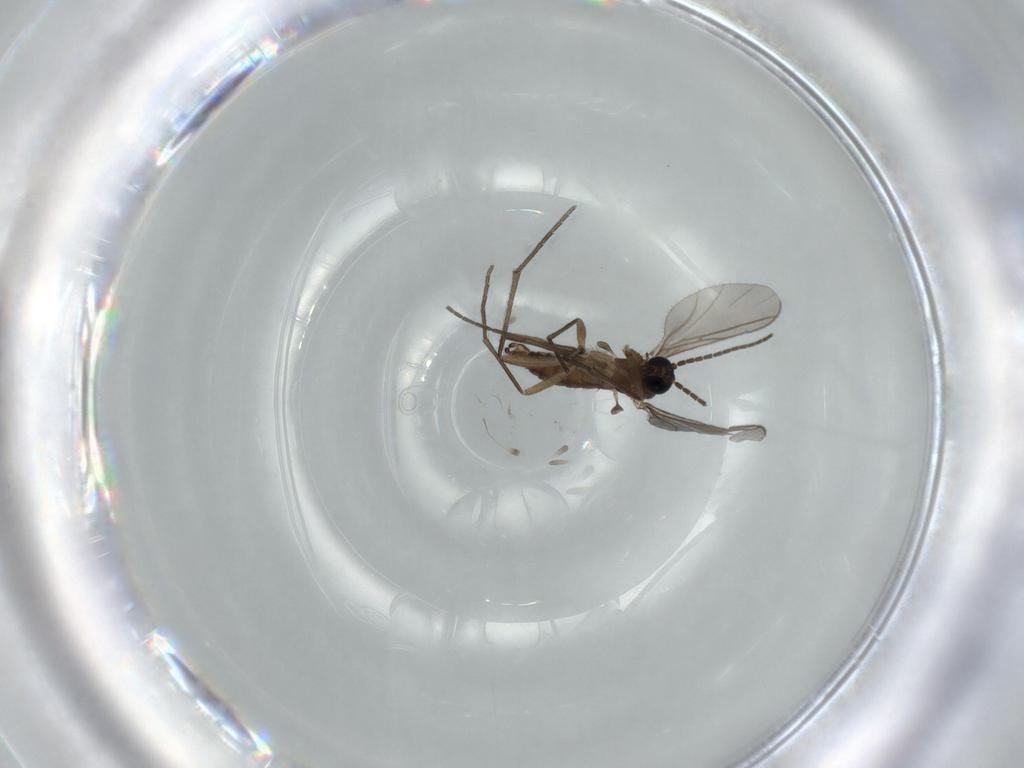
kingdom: Animalia
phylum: Arthropoda
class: Insecta
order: Diptera
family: Sciaridae
